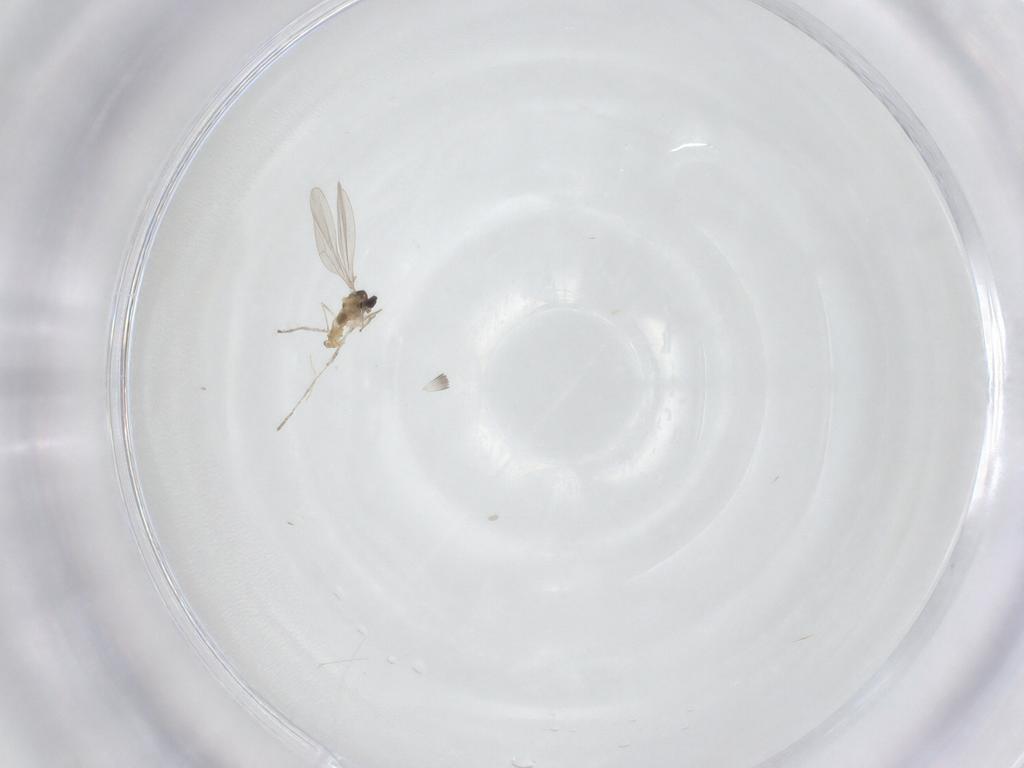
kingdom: Animalia
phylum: Arthropoda
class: Insecta
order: Diptera
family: Cecidomyiidae
